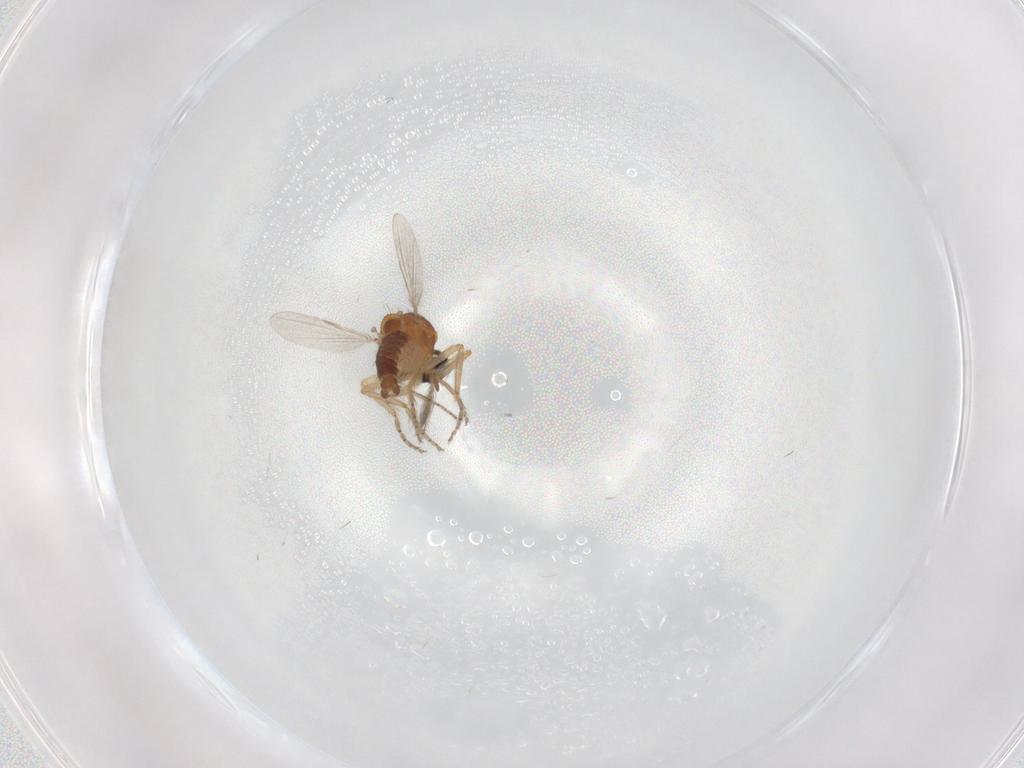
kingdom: Animalia
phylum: Arthropoda
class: Insecta
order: Diptera
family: Ceratopogonidae
